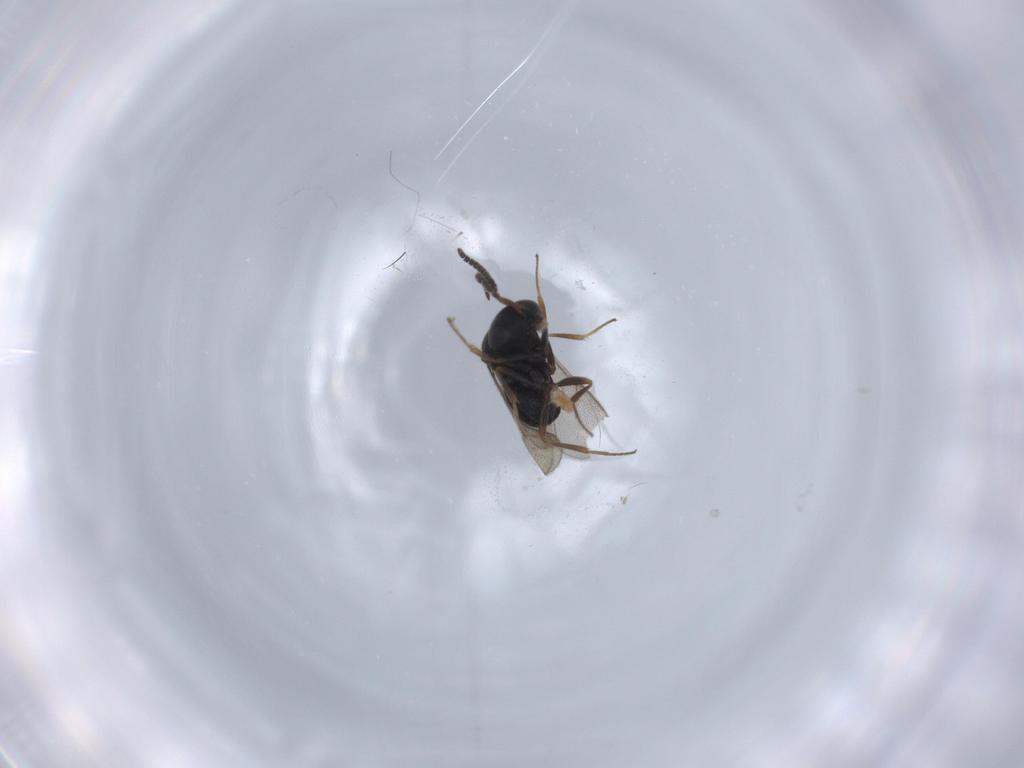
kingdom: Animalia
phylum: Arthropoda
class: Insecta
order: Hymenoptera
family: Scelionidae
